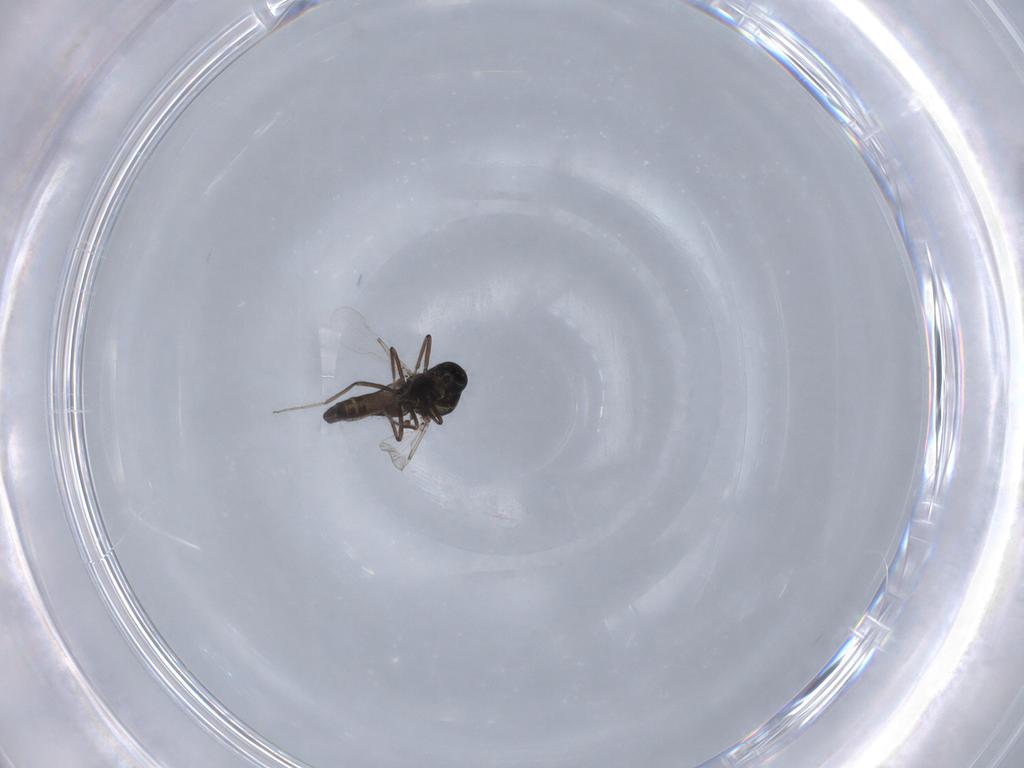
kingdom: Animalia
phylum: Arthropoda
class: Insecta
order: Diptera
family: Ceratopogonidae
